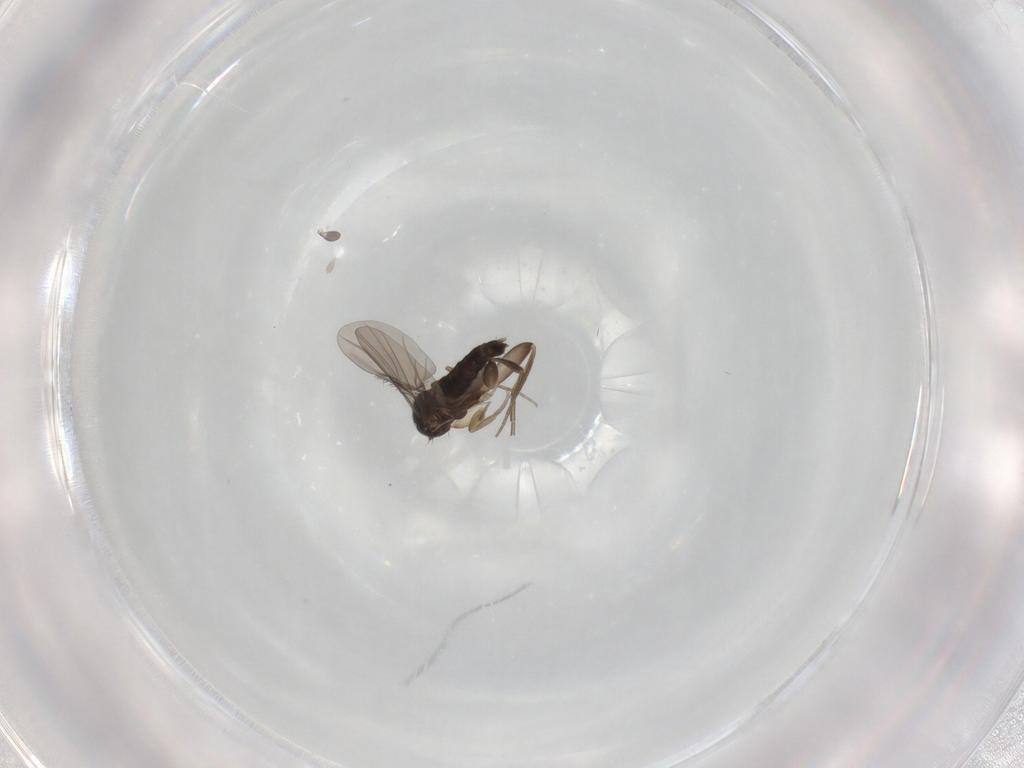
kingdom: Animalia
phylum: Arthropoda
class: Insecta
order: Diptera
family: Phoridae
